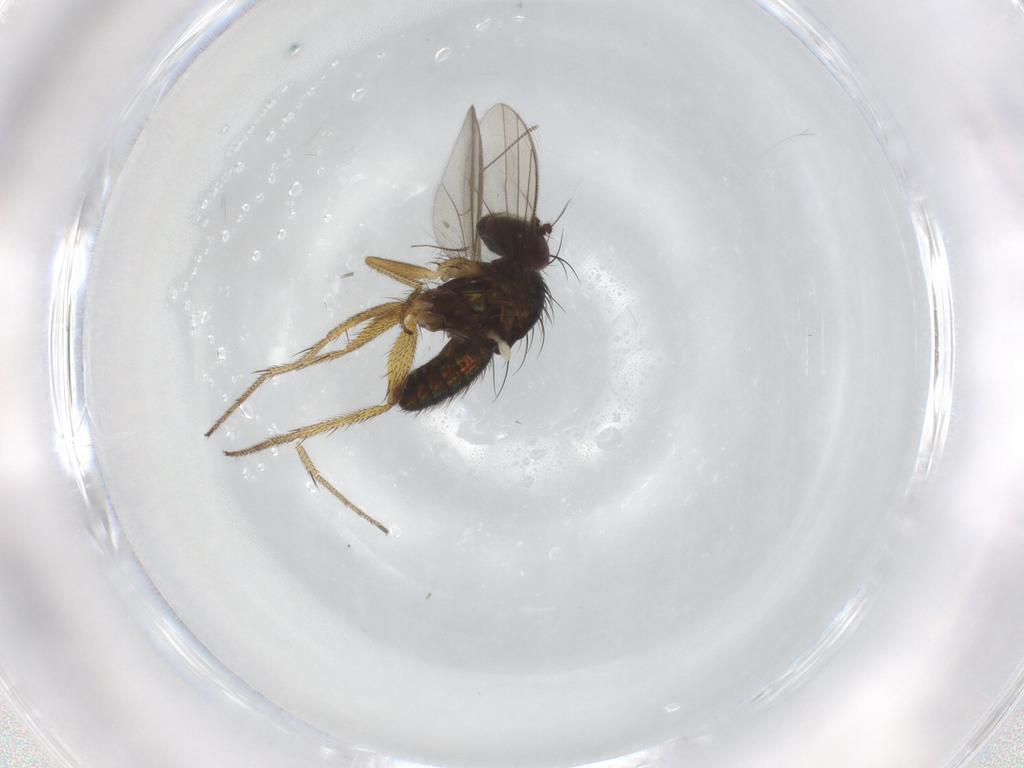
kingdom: Animalia
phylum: Arthropoda
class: Insecta
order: Diptera
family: Chironomidae
